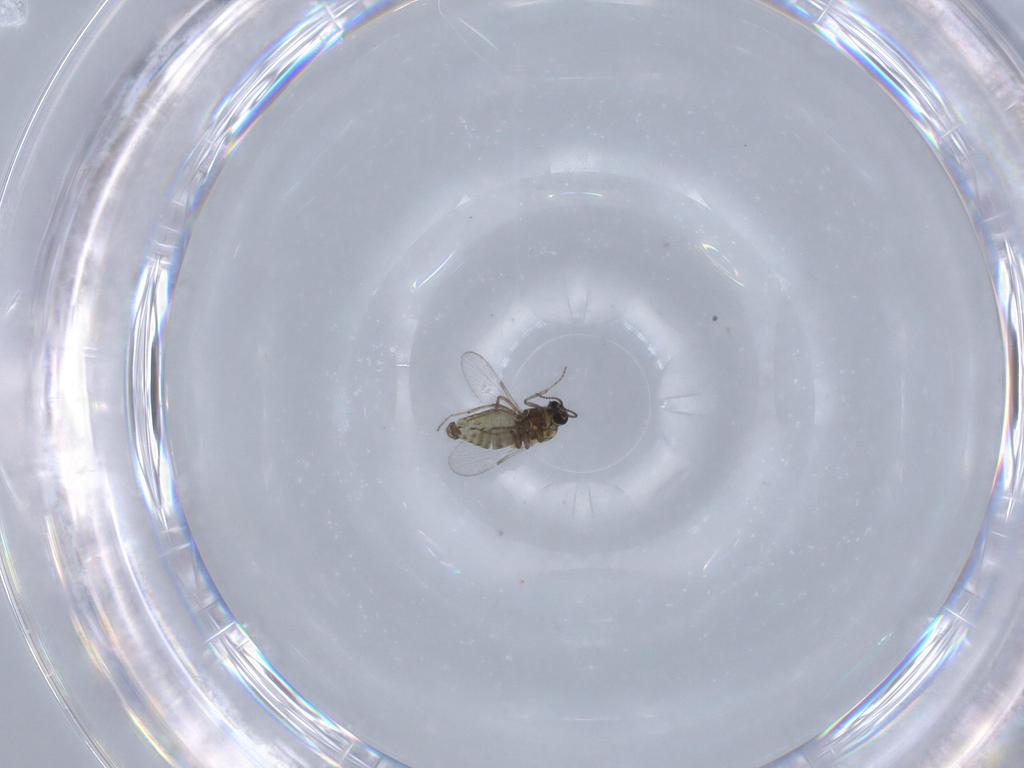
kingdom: Animalia
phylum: Arthropoda
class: Insecta
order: Diptera
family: Ceratopogonidae
